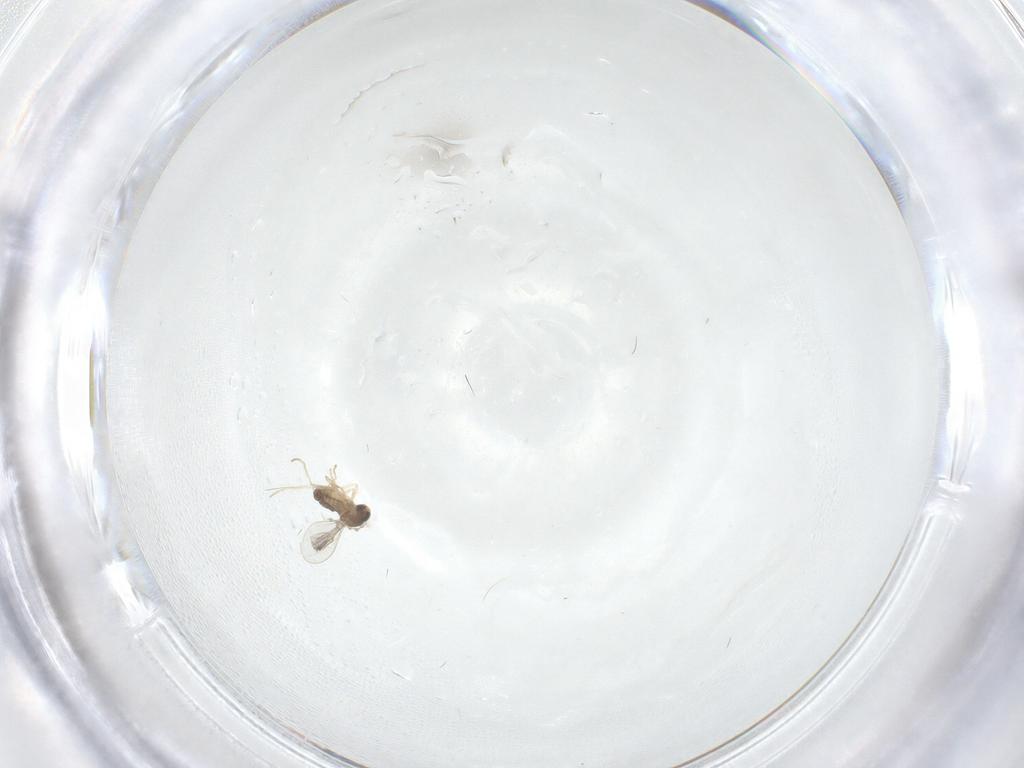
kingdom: Animalia
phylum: Arthropoda
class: Insecta
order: Diptera
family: Cecidomyiidae
